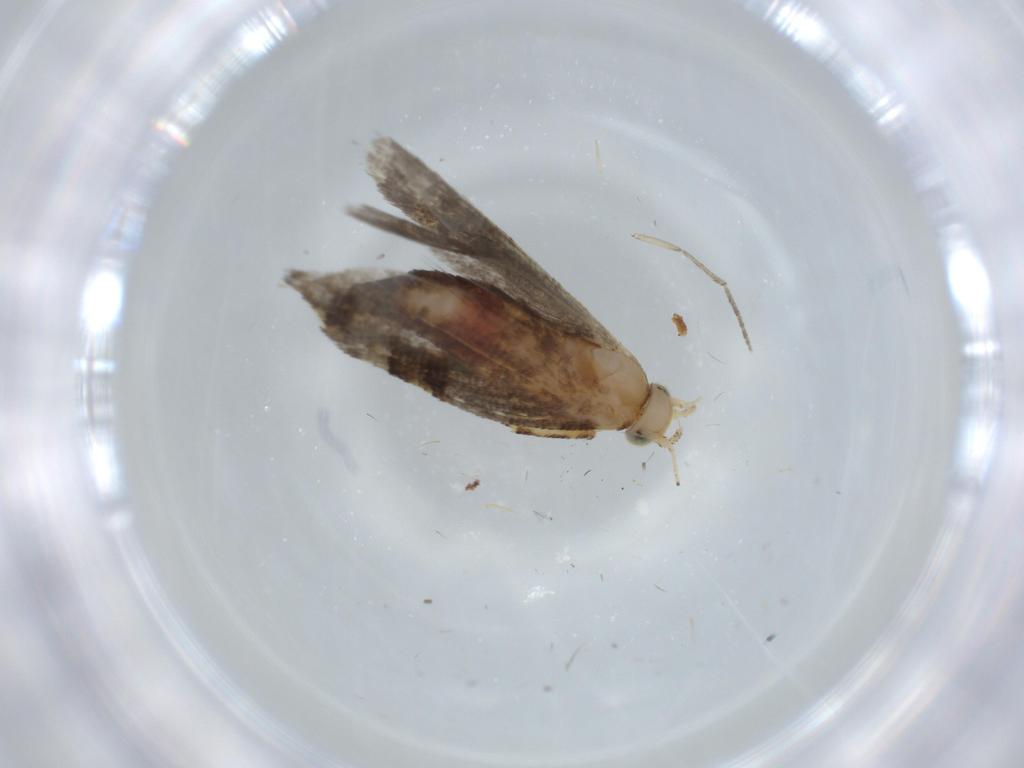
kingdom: Animalia
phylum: Arthropoda
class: Insecta
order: Lepidoptera
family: Glyphipterigidae
